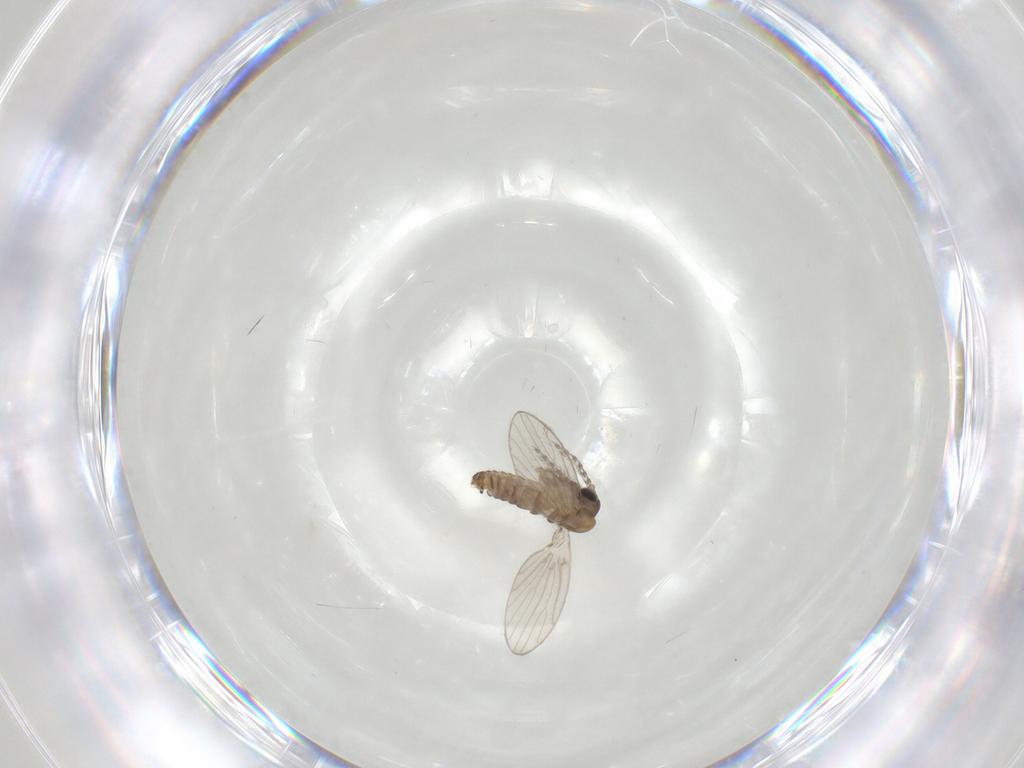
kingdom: Animalia
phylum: Arthropoda
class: Insecta
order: Diptera
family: Psychodidae
